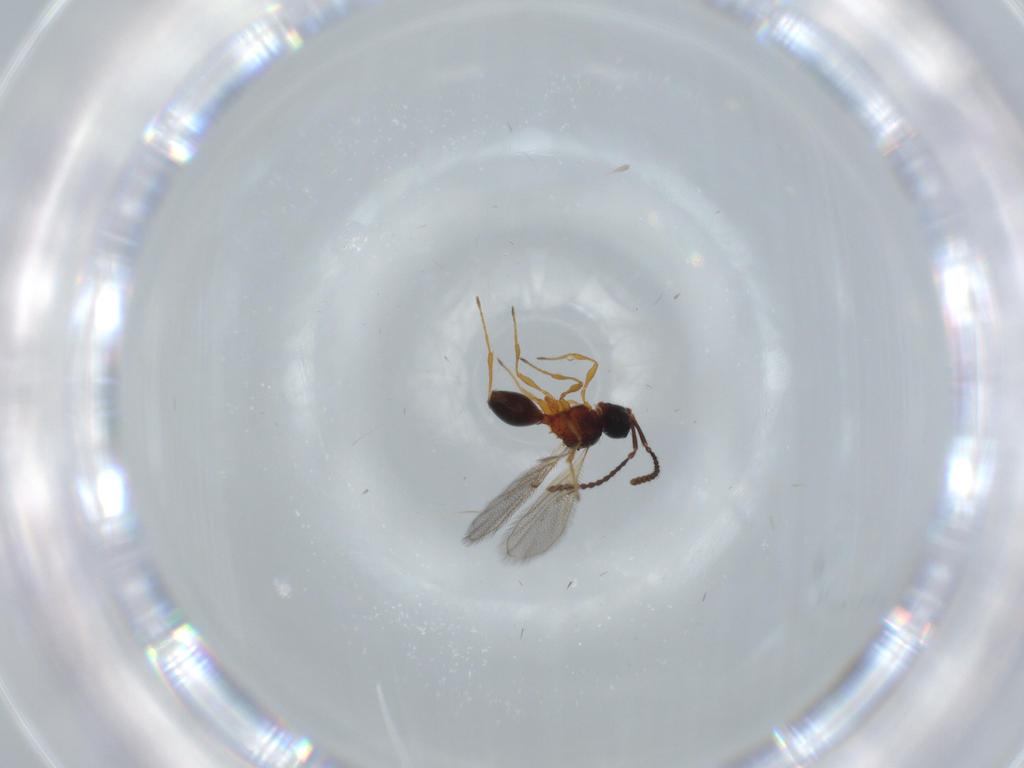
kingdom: Animalia
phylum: Arthropoda
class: Insecta
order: Hymenoptera
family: Diapriidae
